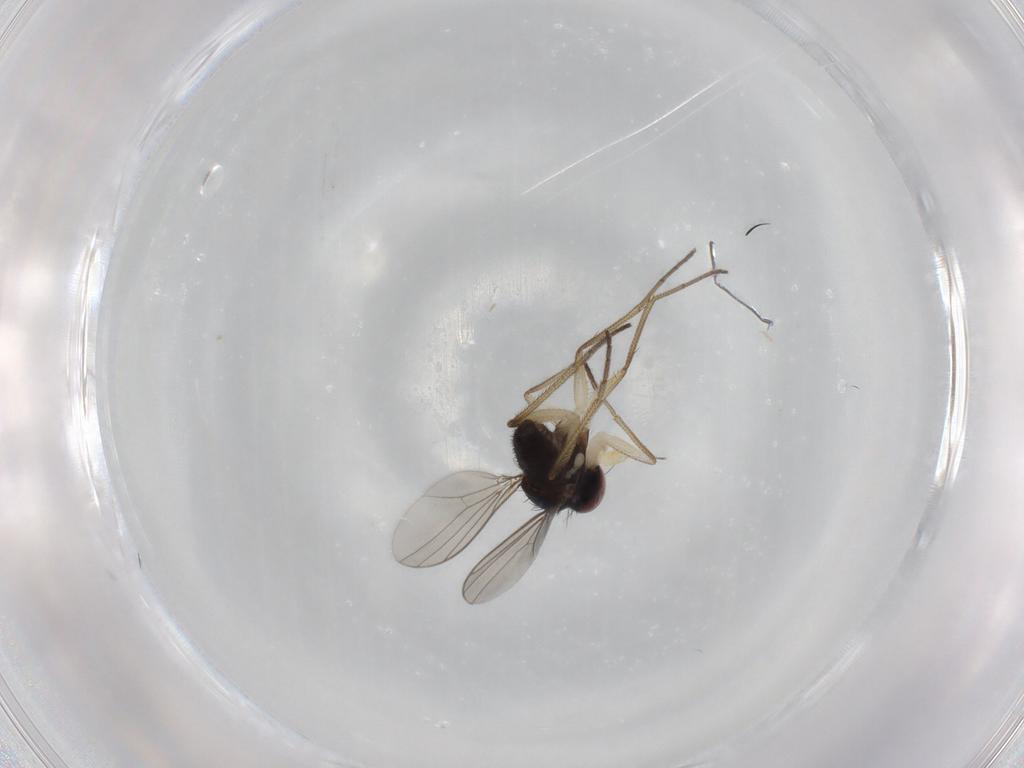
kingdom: Animalia
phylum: Arthropoda
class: Insecta
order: Diptera
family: Dolichopodidae
